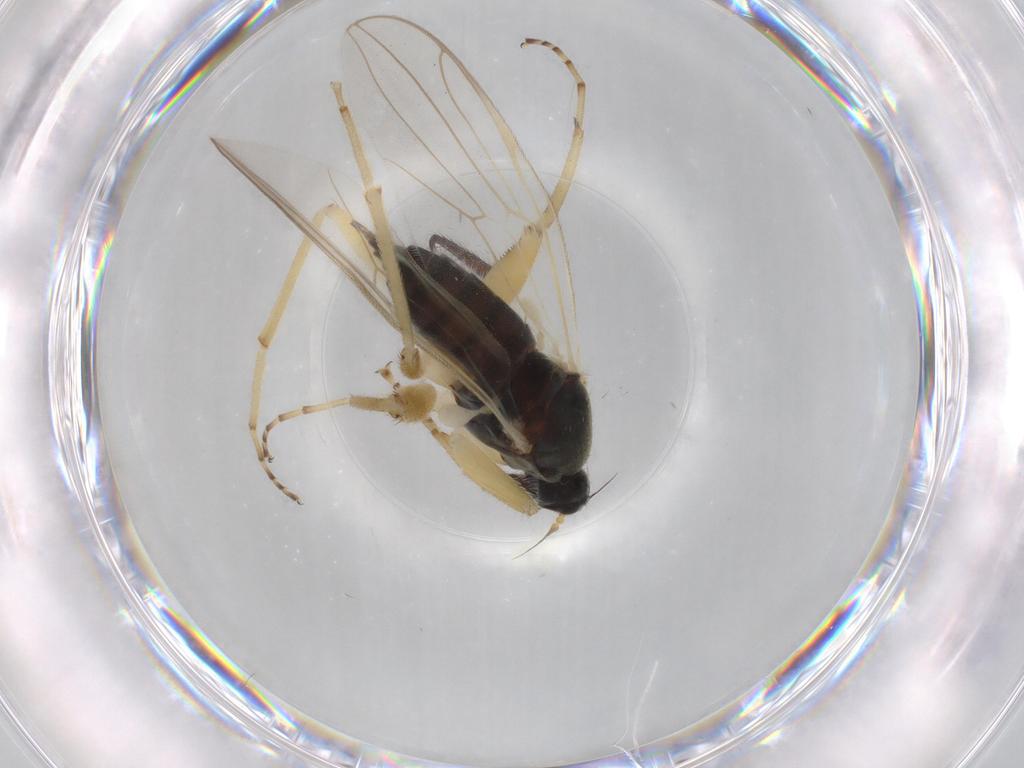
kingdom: Animalia
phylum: Arthropoda
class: Insecta
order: Diptera
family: Hybotidae
